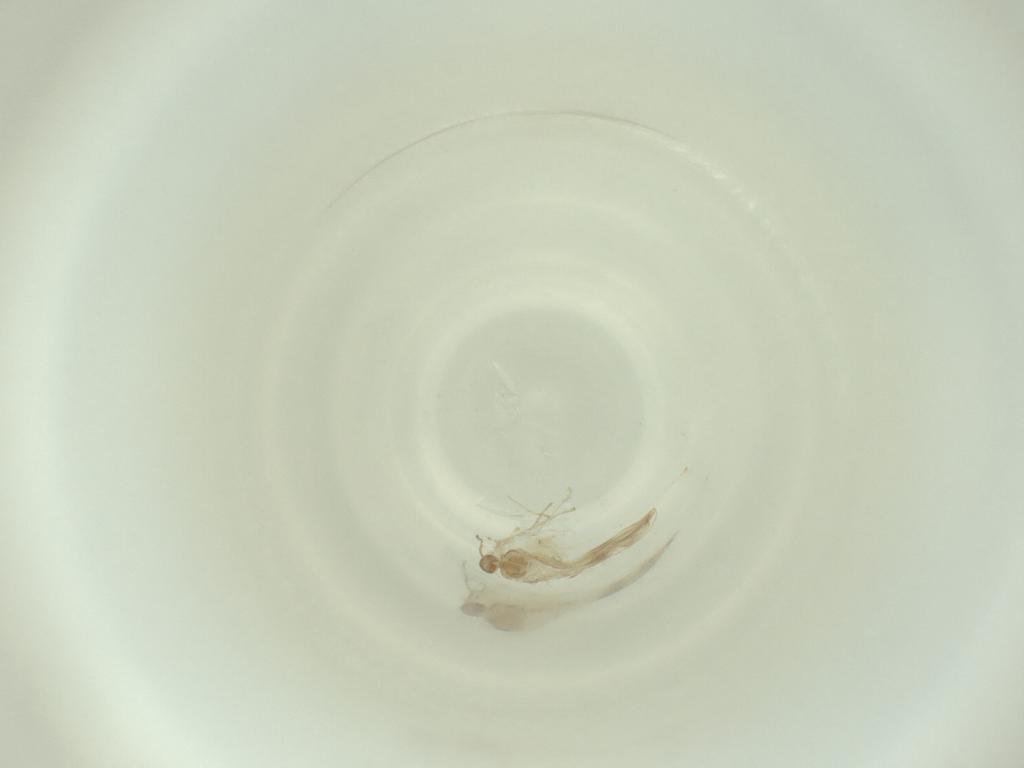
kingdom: Animalia
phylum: Arthropoda
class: Insecta
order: Diptera
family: Cecidomyiidae
